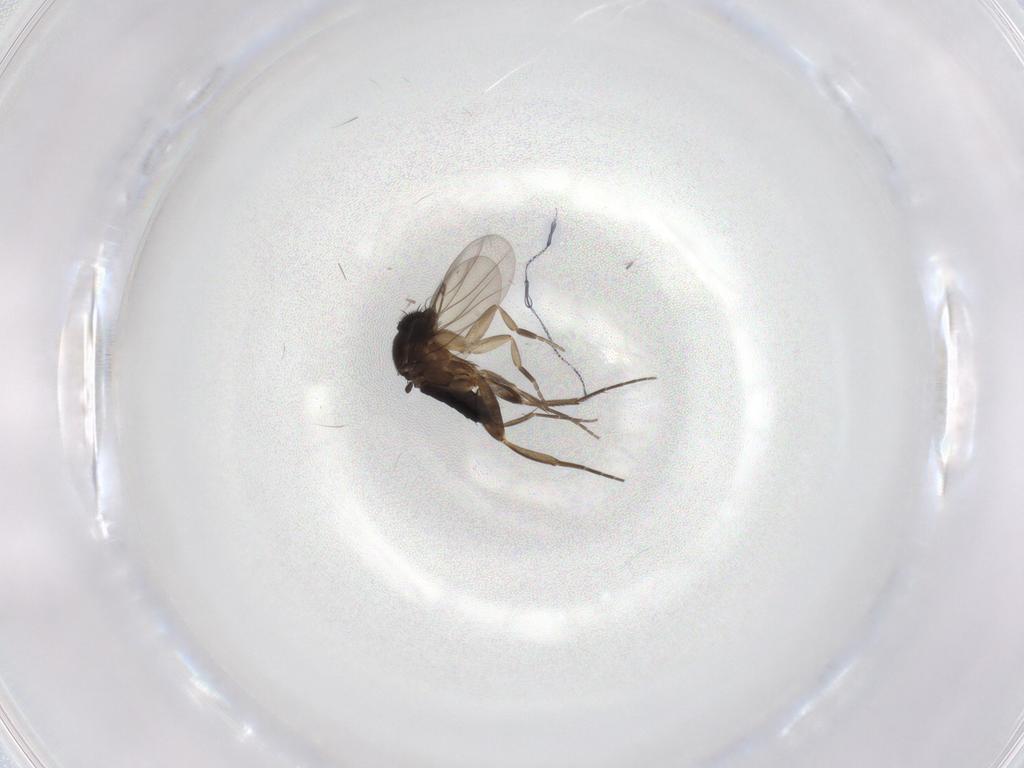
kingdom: Animalia
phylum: Arthropoda
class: Insecta
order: Diptera
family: Phoridae
